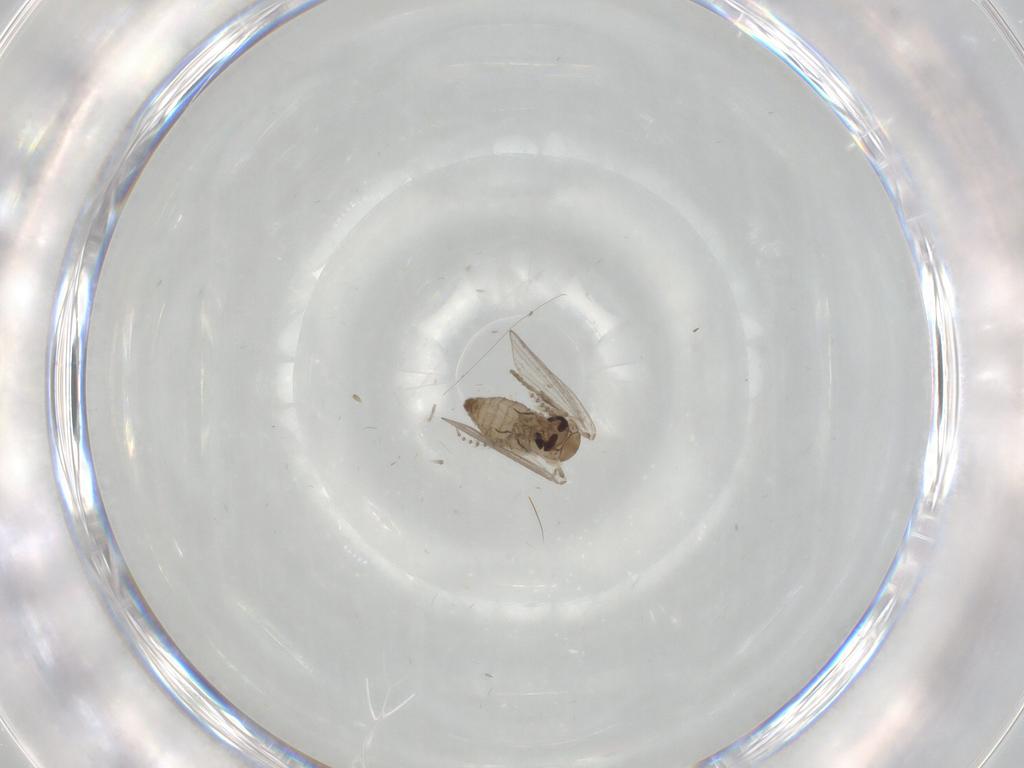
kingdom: Animalia
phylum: Arthropoda
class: Insecta
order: Diptera
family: Psychodidae
